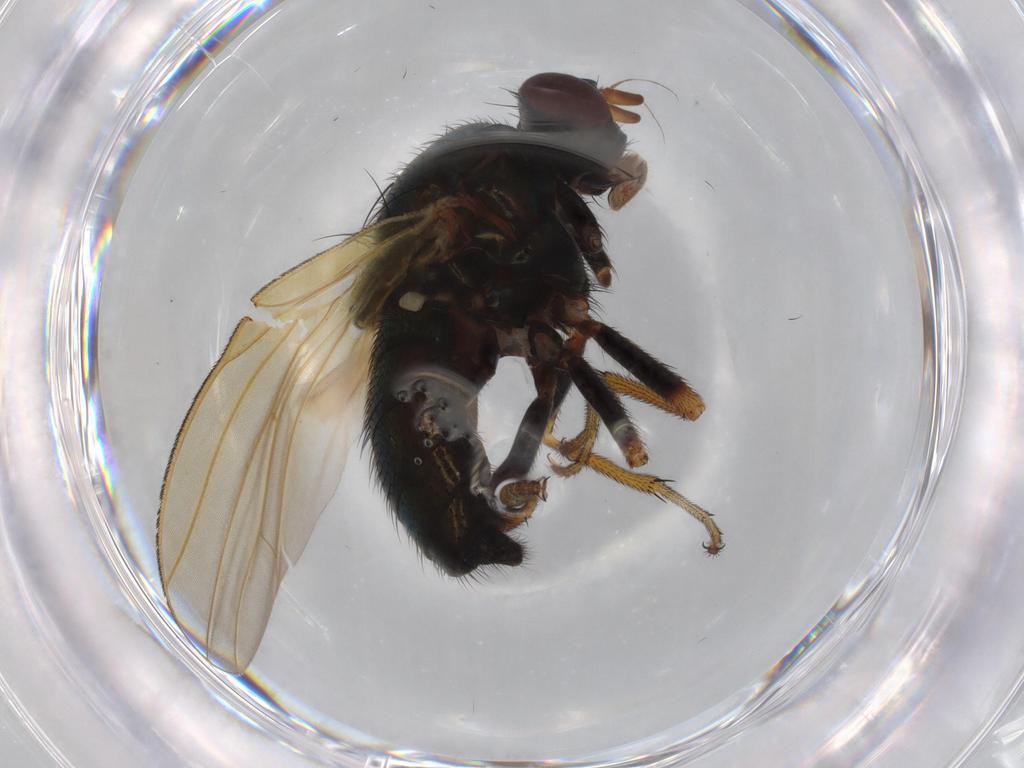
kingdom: Animalia
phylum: Arthropoda
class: Insecta
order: Diptera
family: Lauxaniidae
